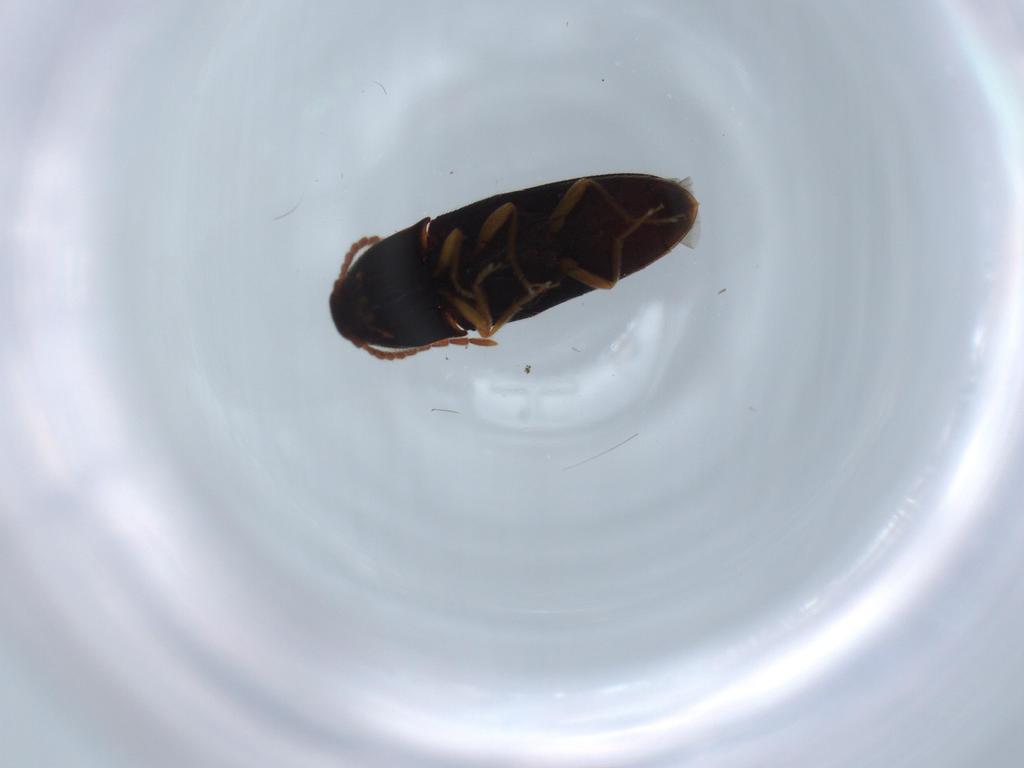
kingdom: Animalia
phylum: Arthropoda
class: Insecta
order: Coleoptera
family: Elateridae
